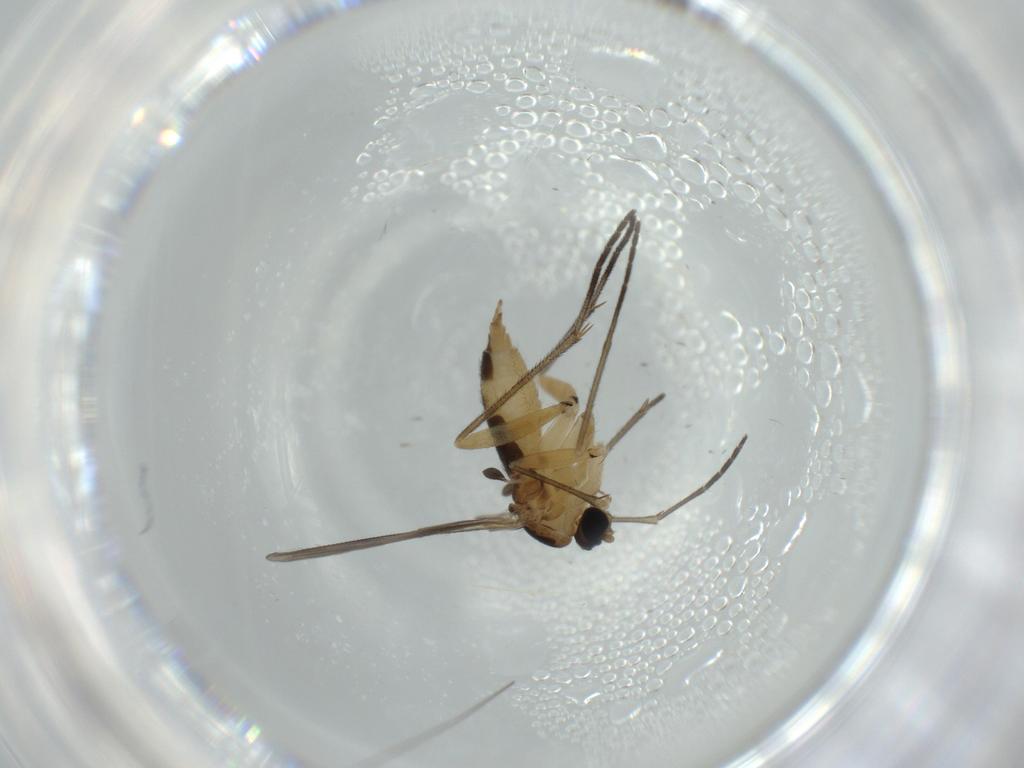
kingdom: Animalia
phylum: Arthropoda
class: Insecta
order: Diptera
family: Sciaridae
